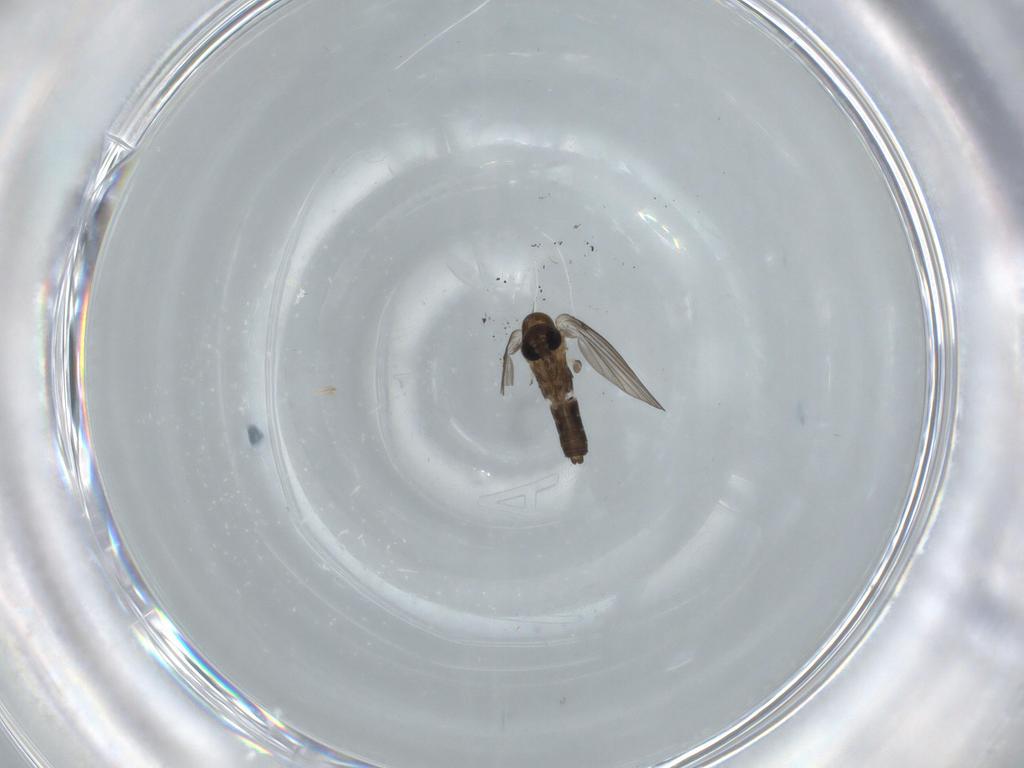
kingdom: Animalia
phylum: Arthropoda
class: Insecta
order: Diptera
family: Psychodidae
